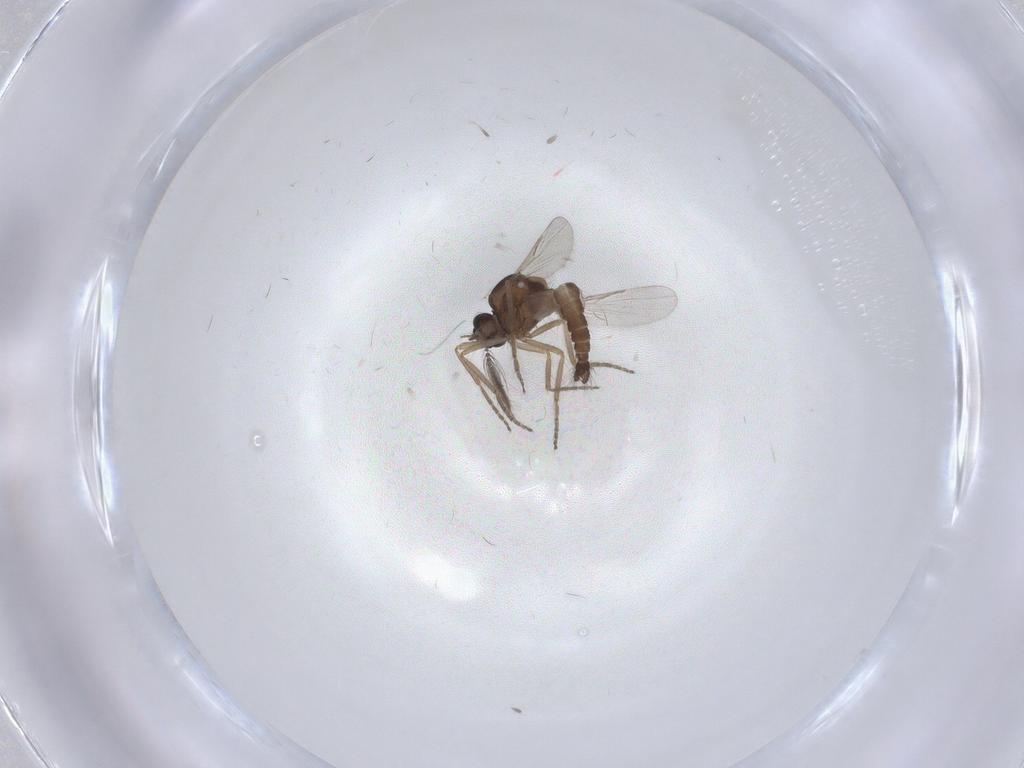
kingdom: Animalia
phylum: Arthropoda
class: Insecta
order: Diptera
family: Ceratopogonidae
